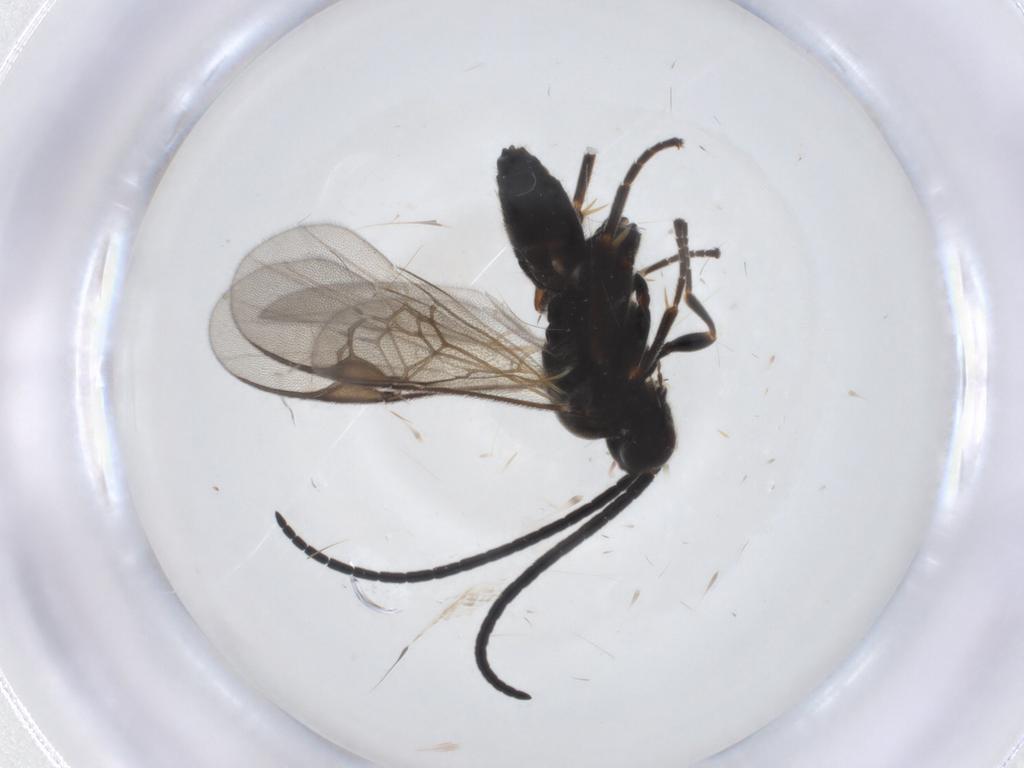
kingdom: Animalia
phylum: Arthropoda
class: Insecta
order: Hymenoptera
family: Braconidae
